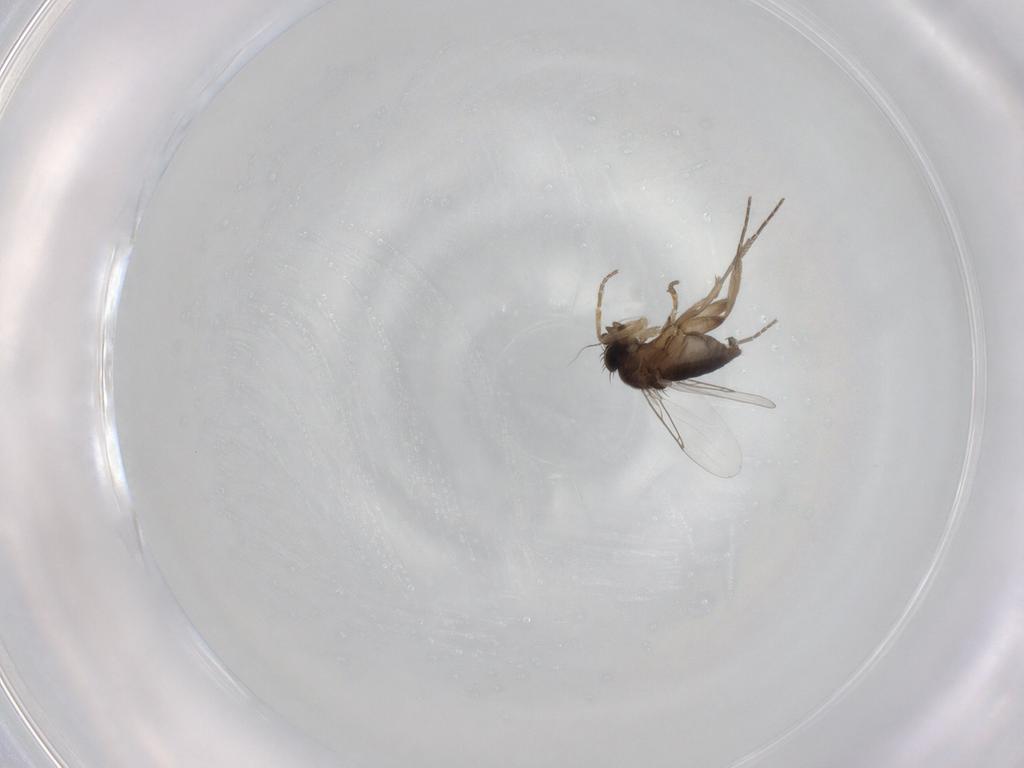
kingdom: Animalia
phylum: Arthropoda
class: Insecta
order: Diptera
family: Phoridae
